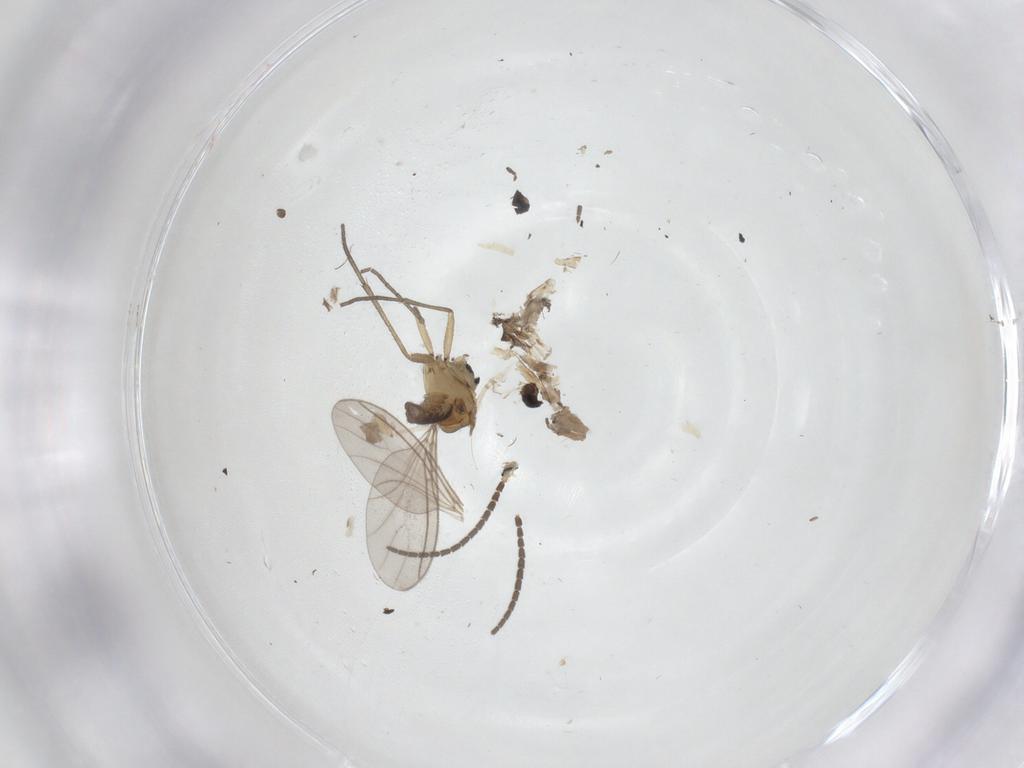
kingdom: Animalia
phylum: Arthropoda
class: Insecta
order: Diptera
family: Phoridae
